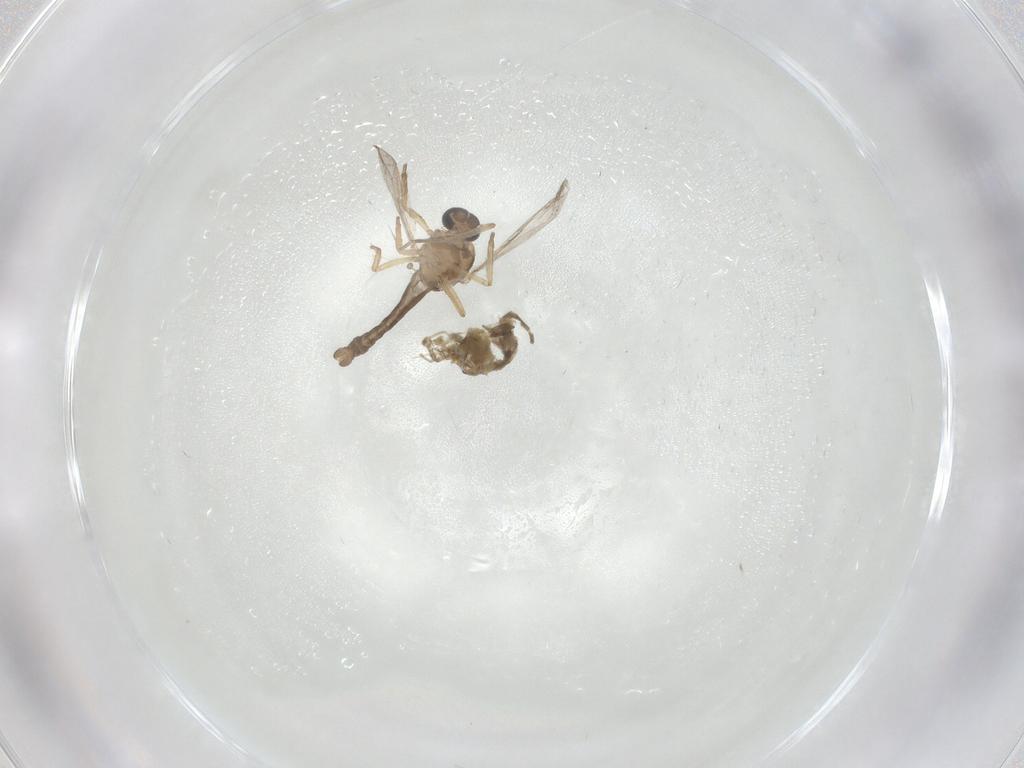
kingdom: Animalia
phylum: Arthropoda
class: Insecta
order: Diptera
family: Ceratopogonidae
